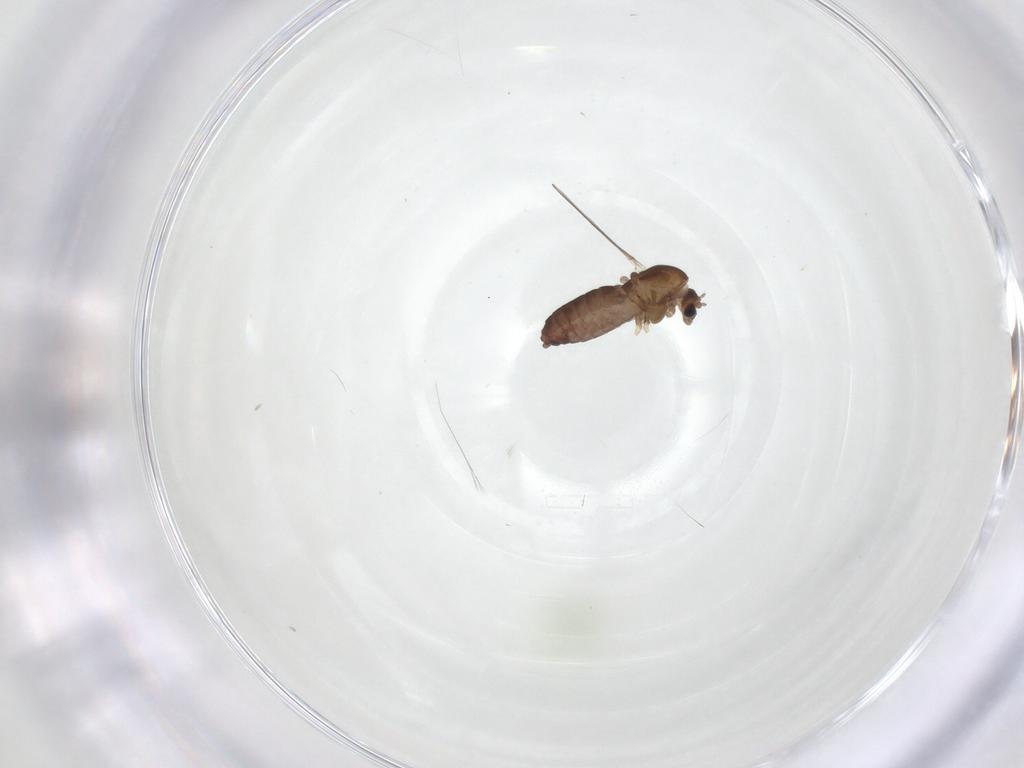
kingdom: Animalia
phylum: Arthropoda
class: Insecta
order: Diptera
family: Chironomidae
